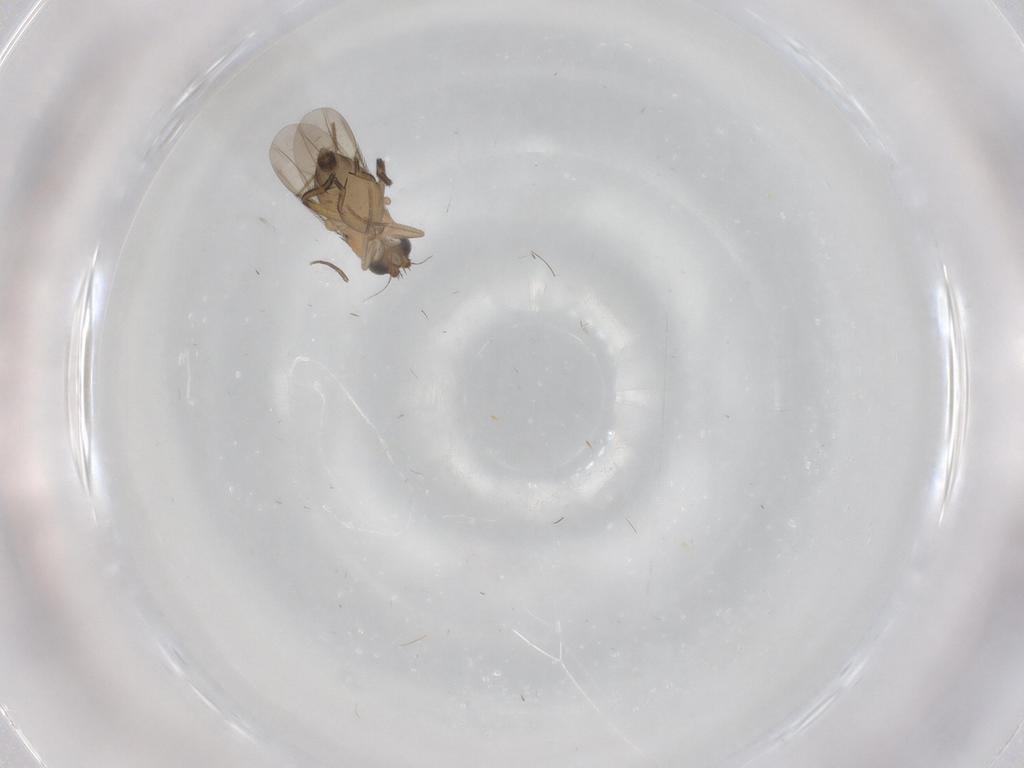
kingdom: Animalia
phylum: Arthropoda
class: Insecta
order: Diptera
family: Phoridae
